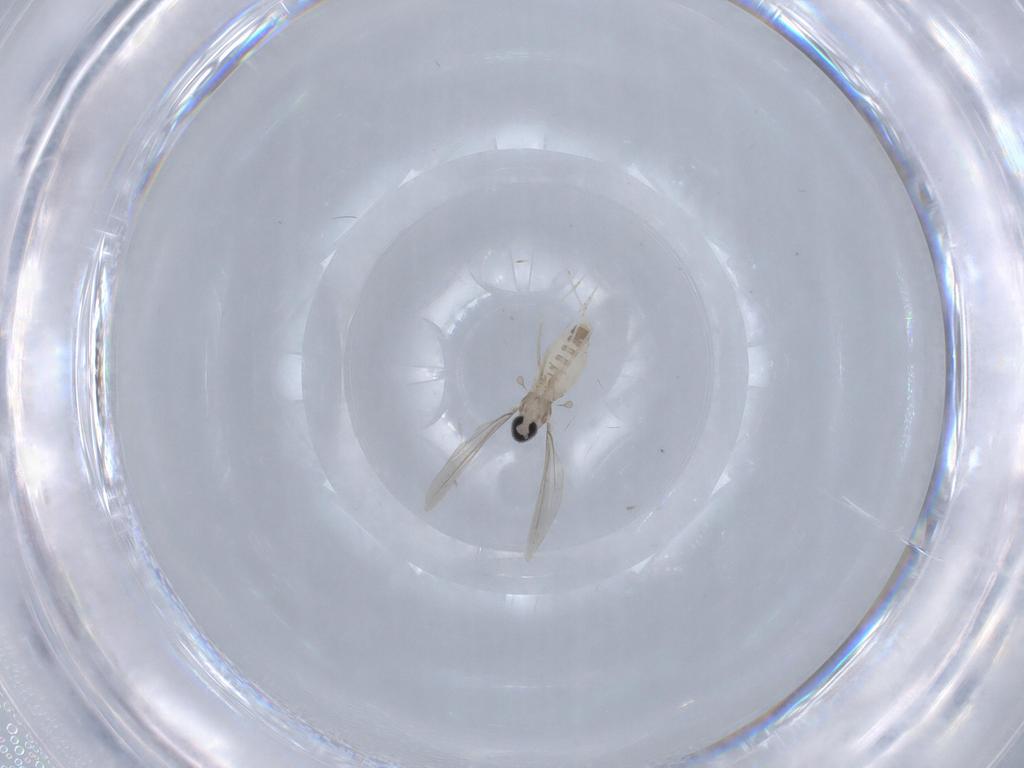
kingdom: Animalia
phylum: Arthropoda
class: Insecta
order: Diptera
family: Cecidomyiidae
